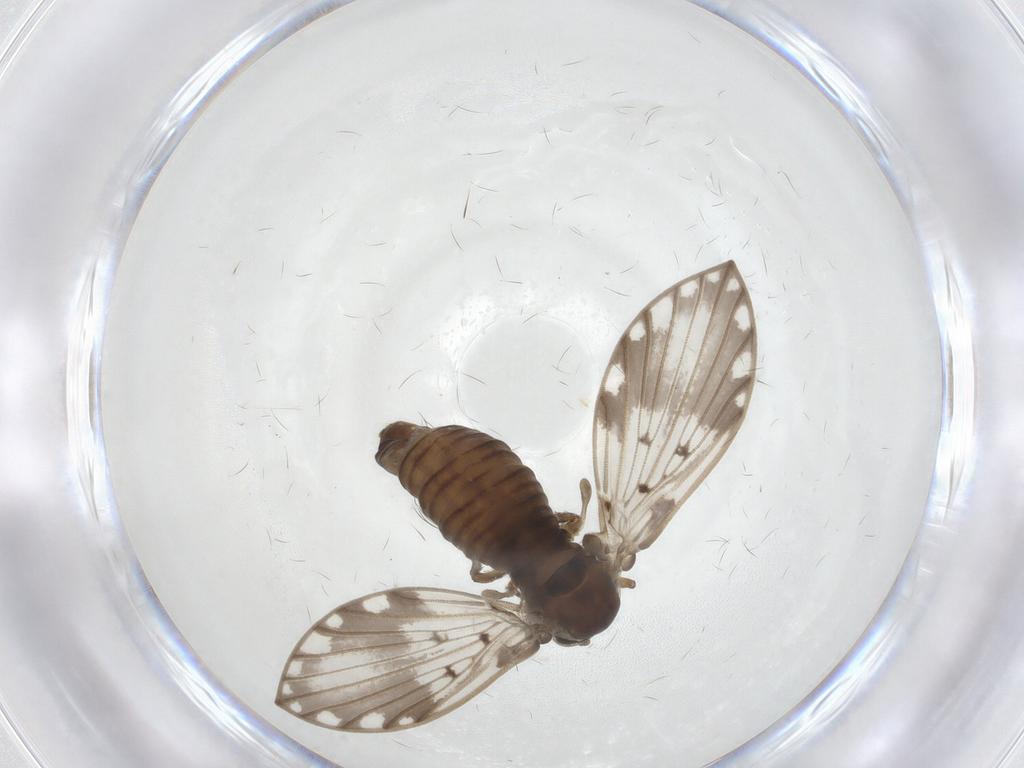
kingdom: Animalia
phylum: Arthropoda
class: Insecta
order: Diptera
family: Psychodidae
